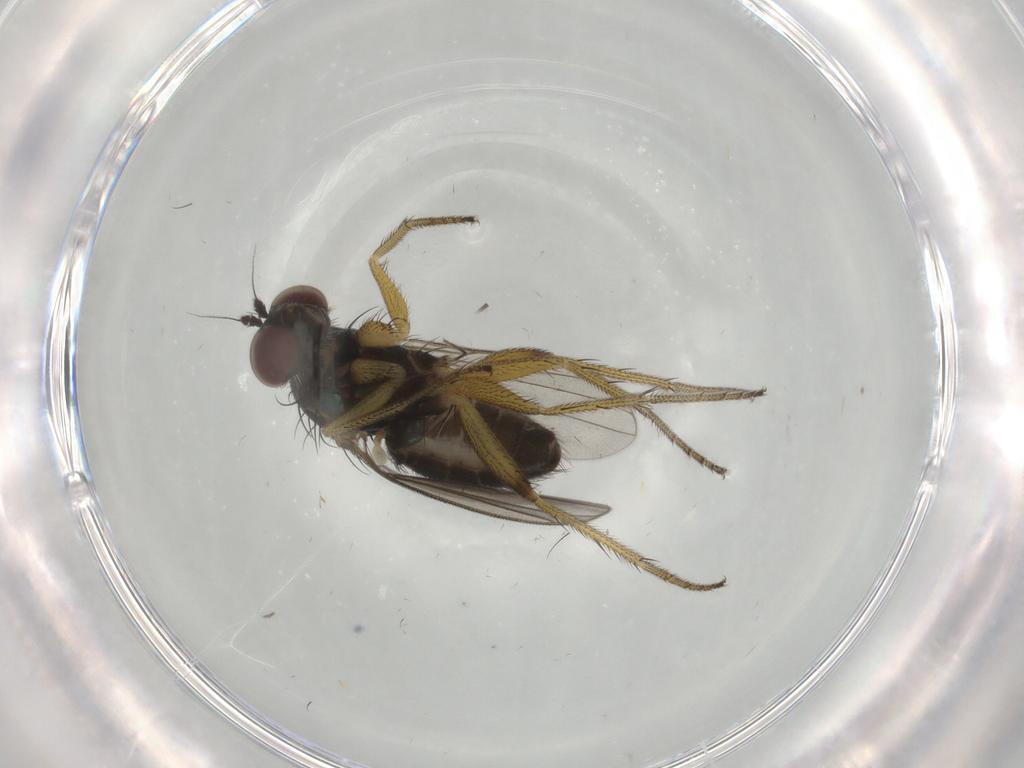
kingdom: Animalia
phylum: Arthropoda
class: Insecta
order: Diptera
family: Dolichopodidae
